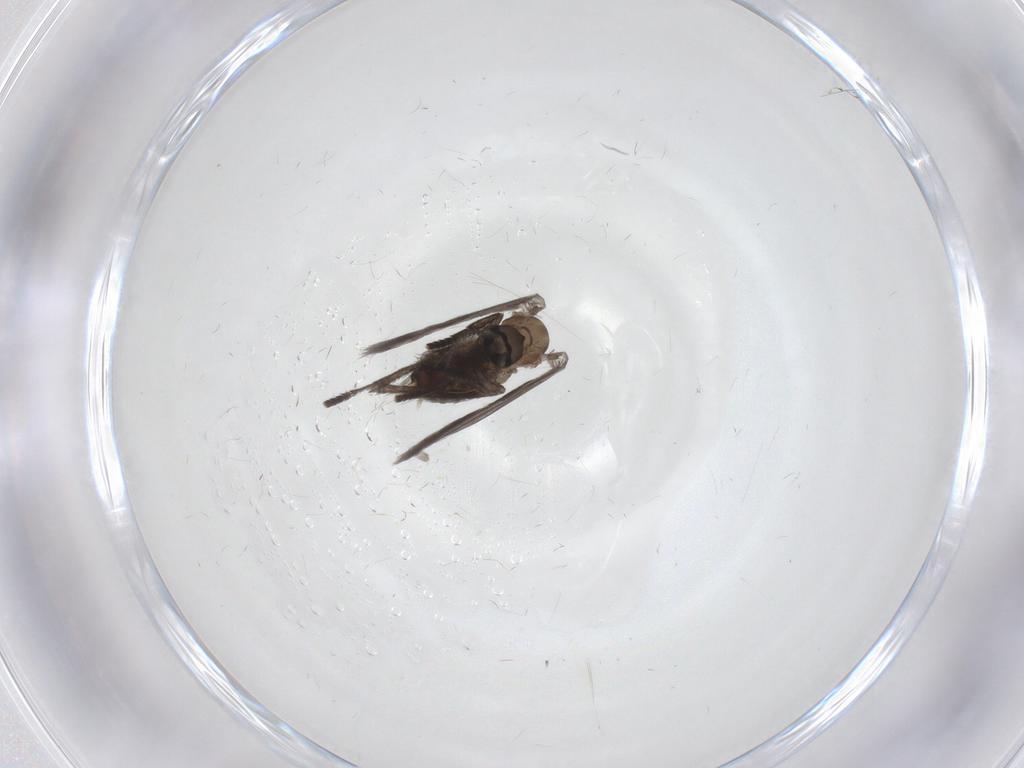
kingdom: Animalia
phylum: Arthropoda
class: Insecta
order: Diptera
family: Psychodidae
